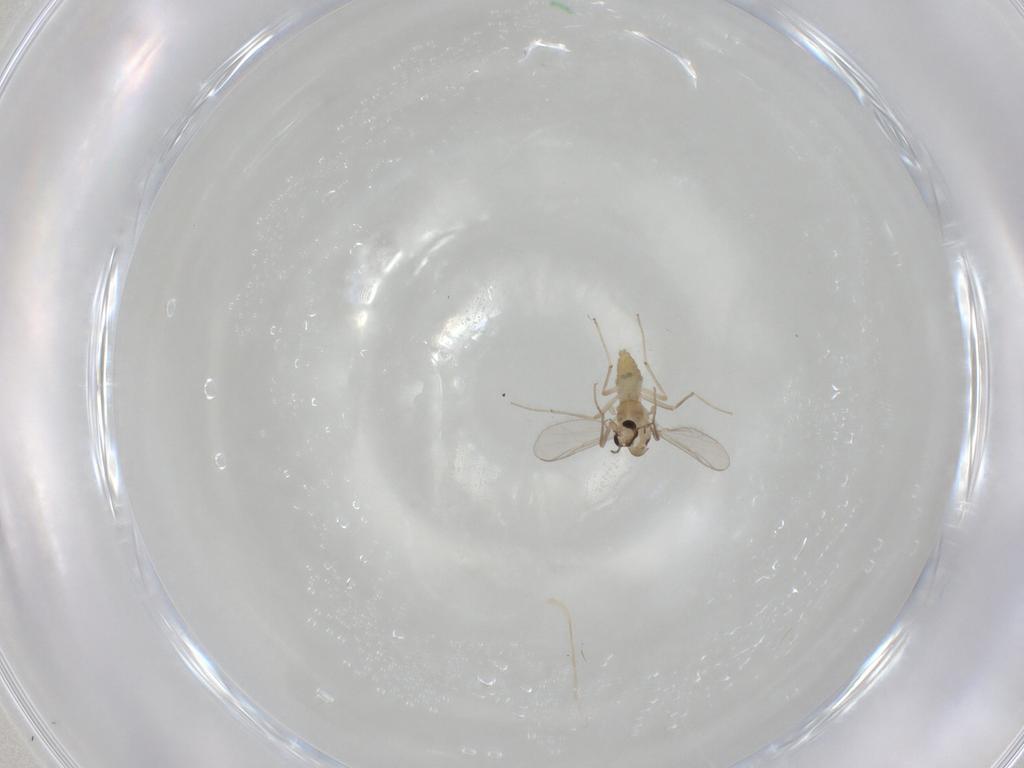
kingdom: Animalia
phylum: Arthropoda
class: Insecta
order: Diptera
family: Chironomidae
